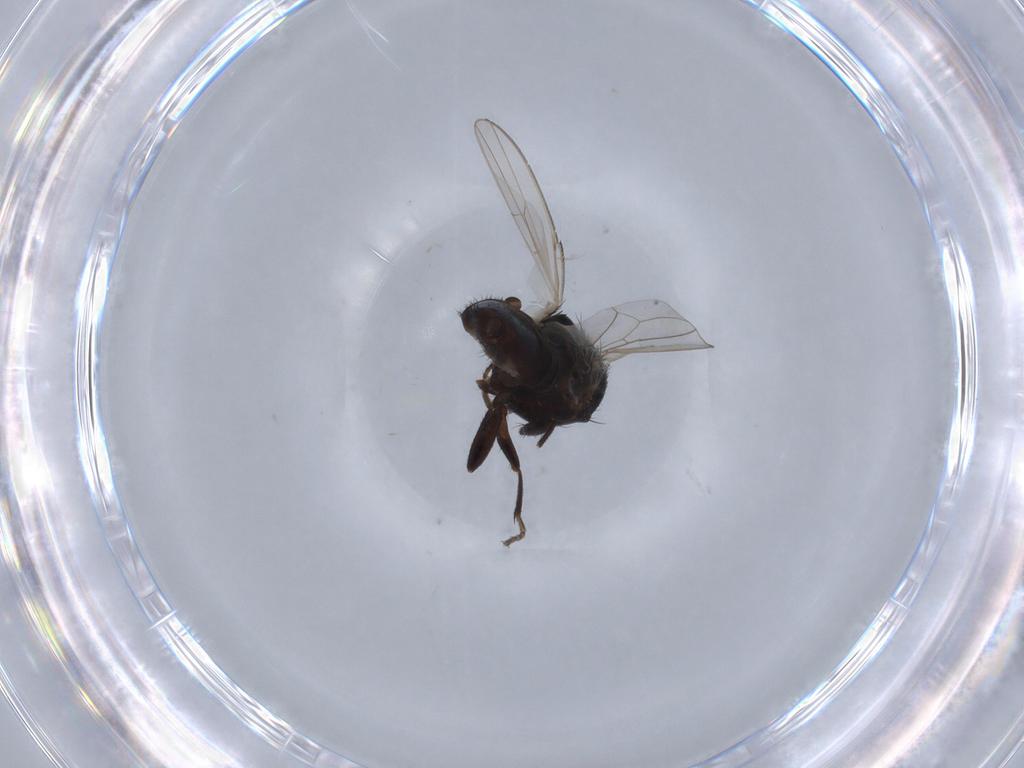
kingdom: Animalia
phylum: Arthropoda
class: Insecta
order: Diptera
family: Milichiidae
